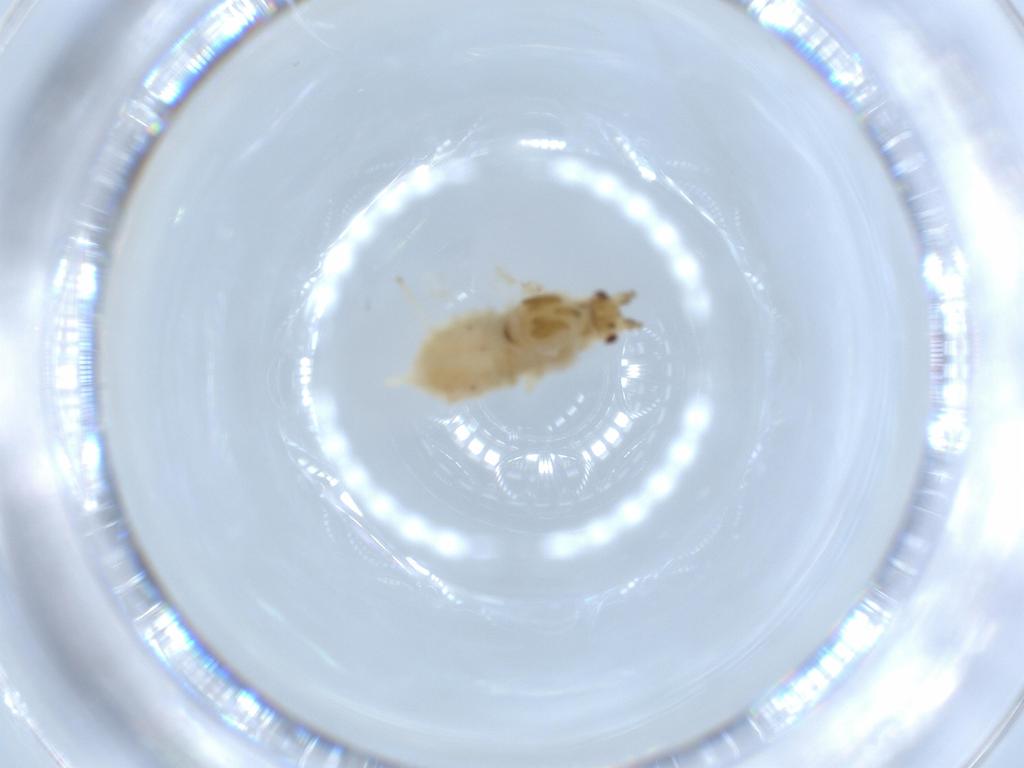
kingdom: Animalia
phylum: Arthropoda
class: Insecta
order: Hemiptera
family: Aphididae
